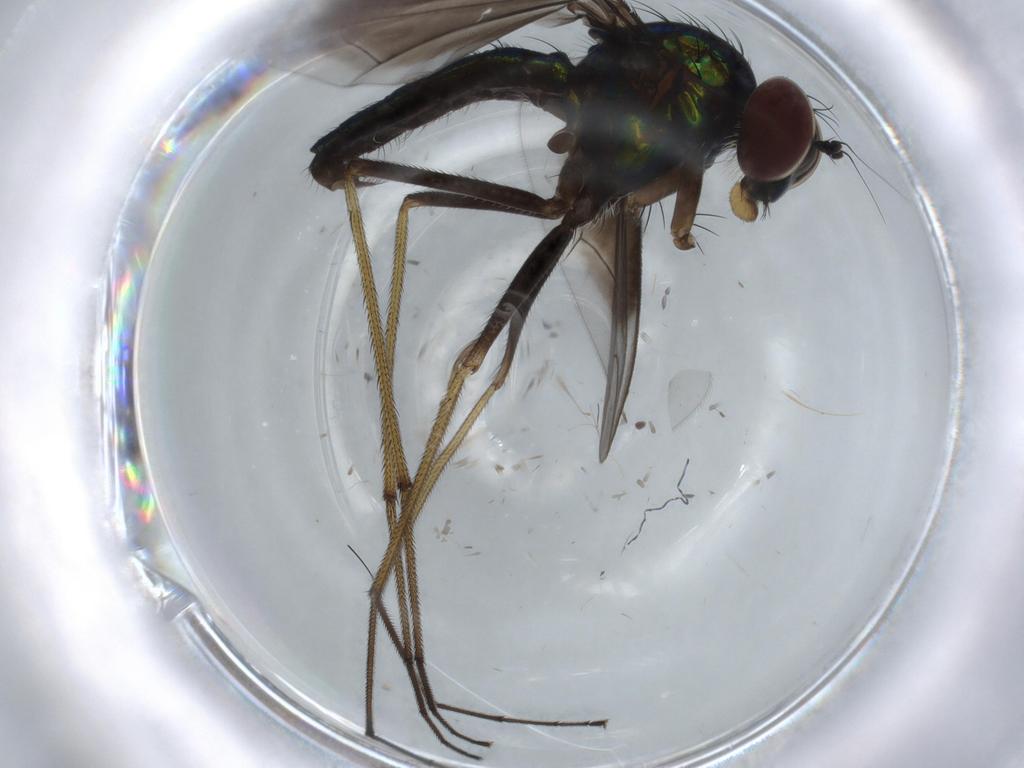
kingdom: Animalia
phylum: Arthropoda
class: Insecta
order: Diptera
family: Dolichopodidae
